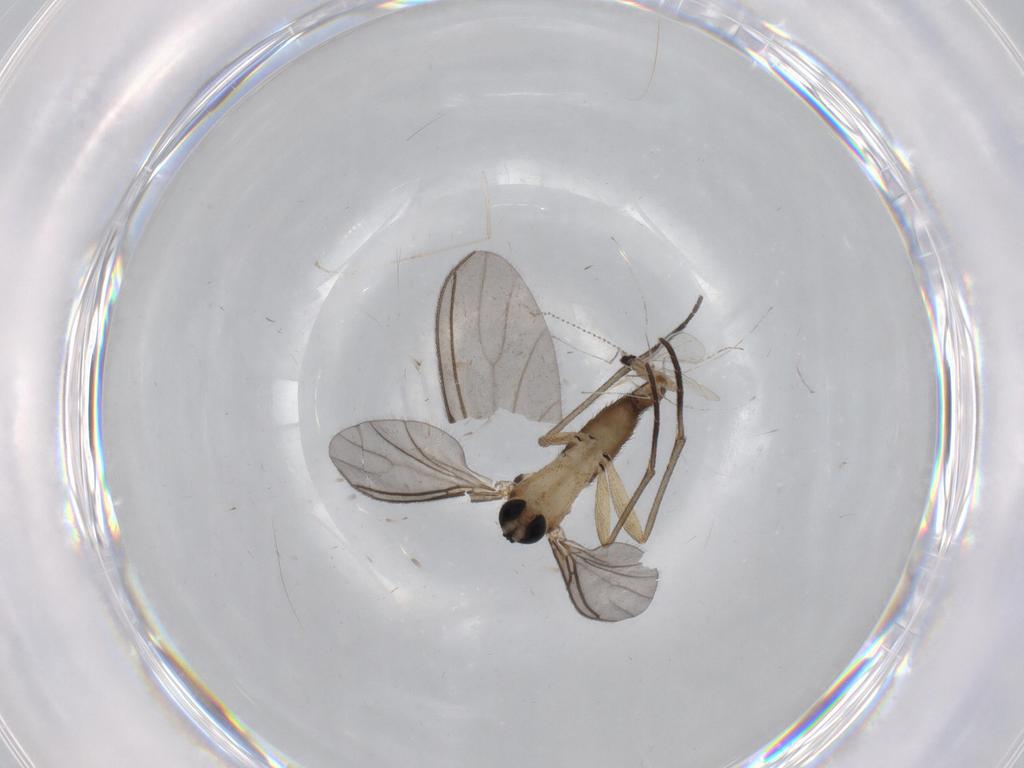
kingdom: Animalia
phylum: Arthropoda
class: Insecta
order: Diptera
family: Cecidomyiidae
